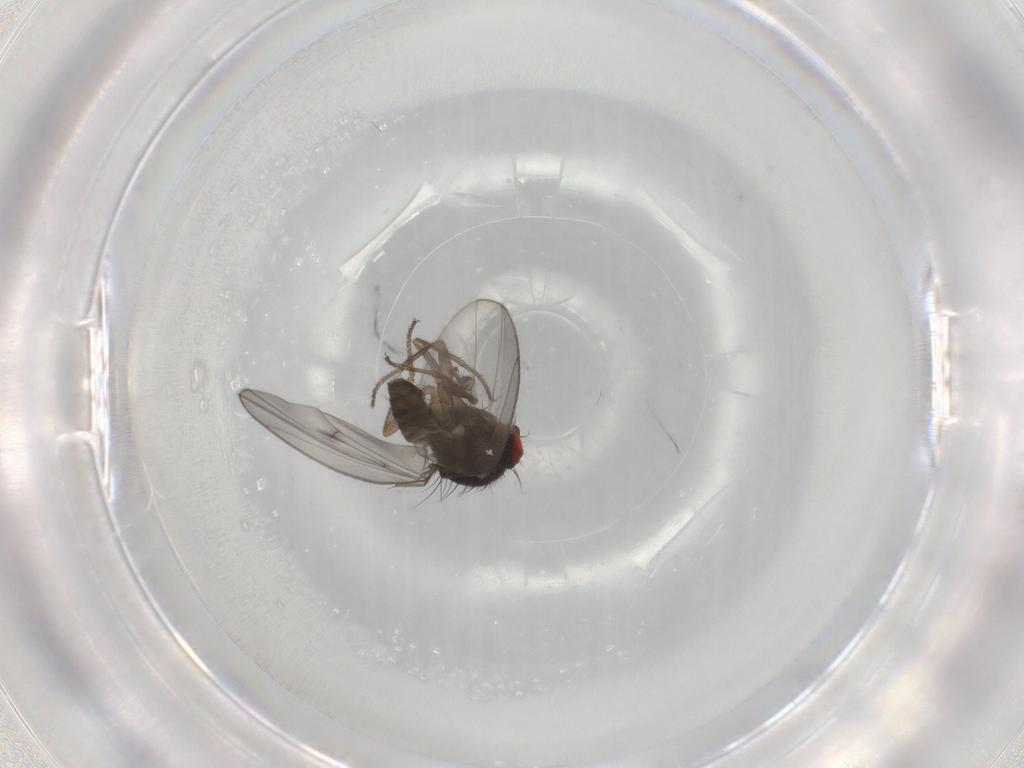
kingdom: Animalia
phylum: Arthropoda
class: Insecta
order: Diptera
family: Drosophilidae
